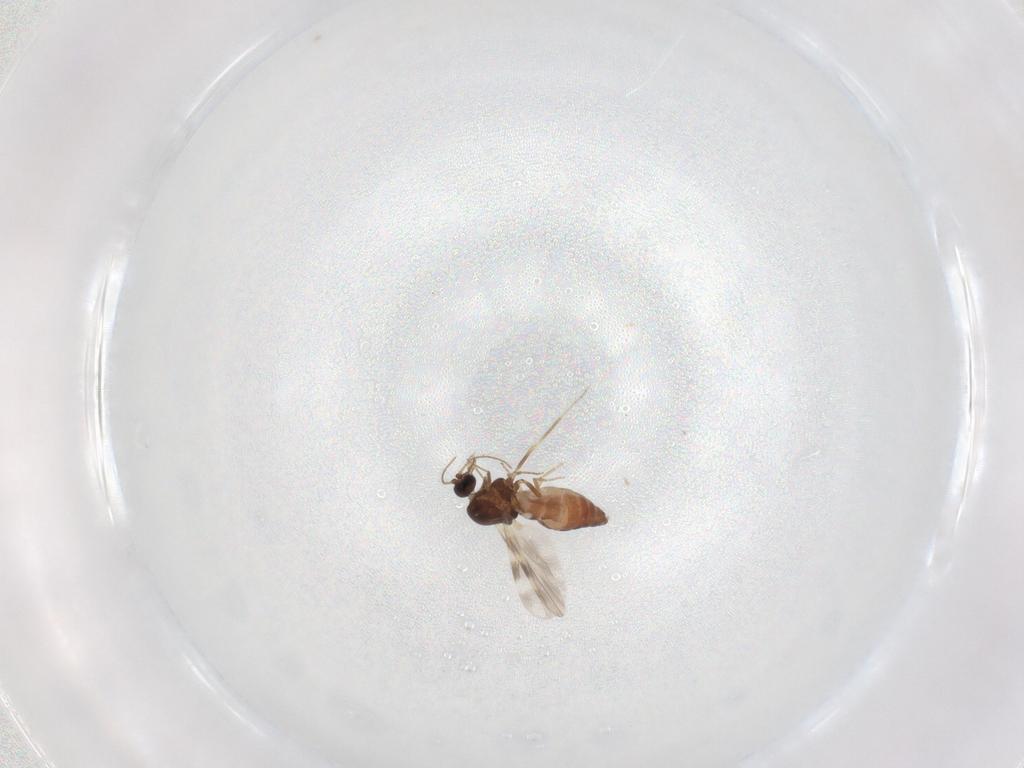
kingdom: Animalia
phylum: Arthropoda
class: Insecta
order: Diptera
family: Ceratopogonidae
